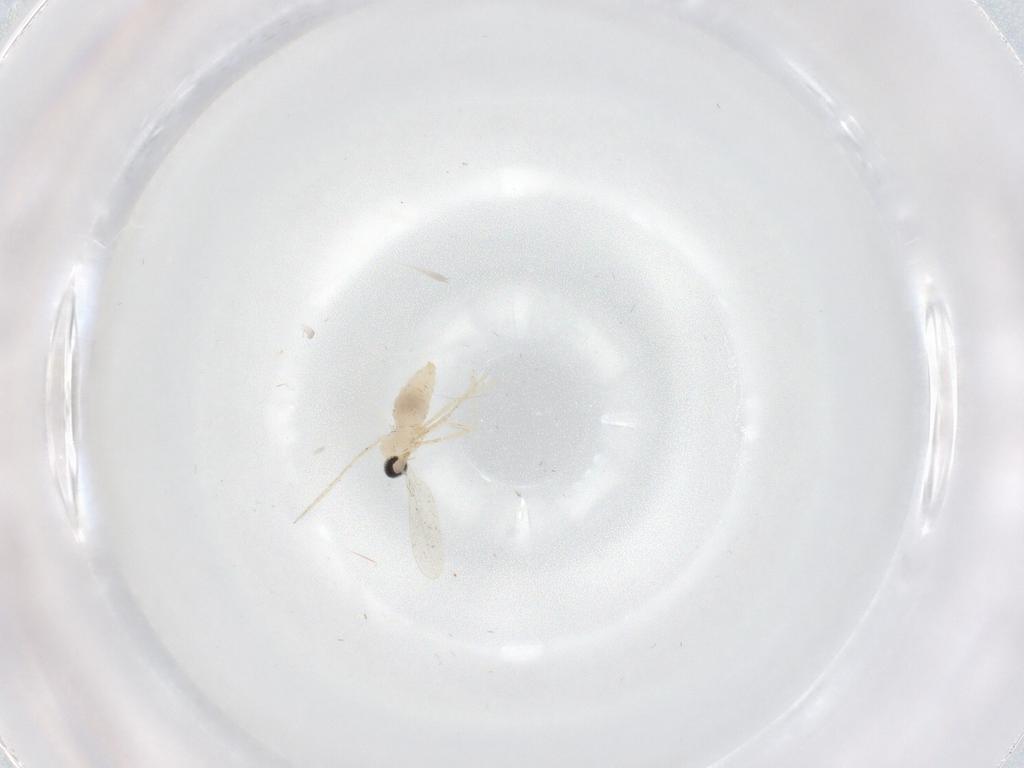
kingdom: Animalia
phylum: Arthropoda
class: Insecta
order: Diptera
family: Cecidomyiidae
